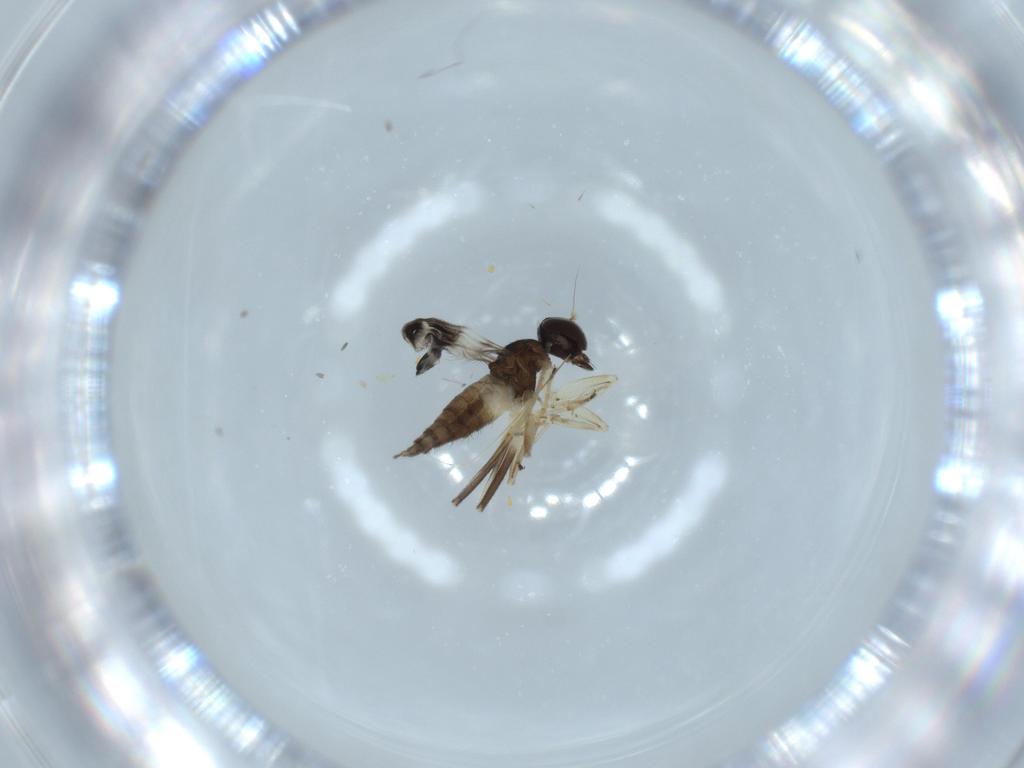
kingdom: Animalia
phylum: Arthropoda
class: Insecta
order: Diptera
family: Hybotidae
